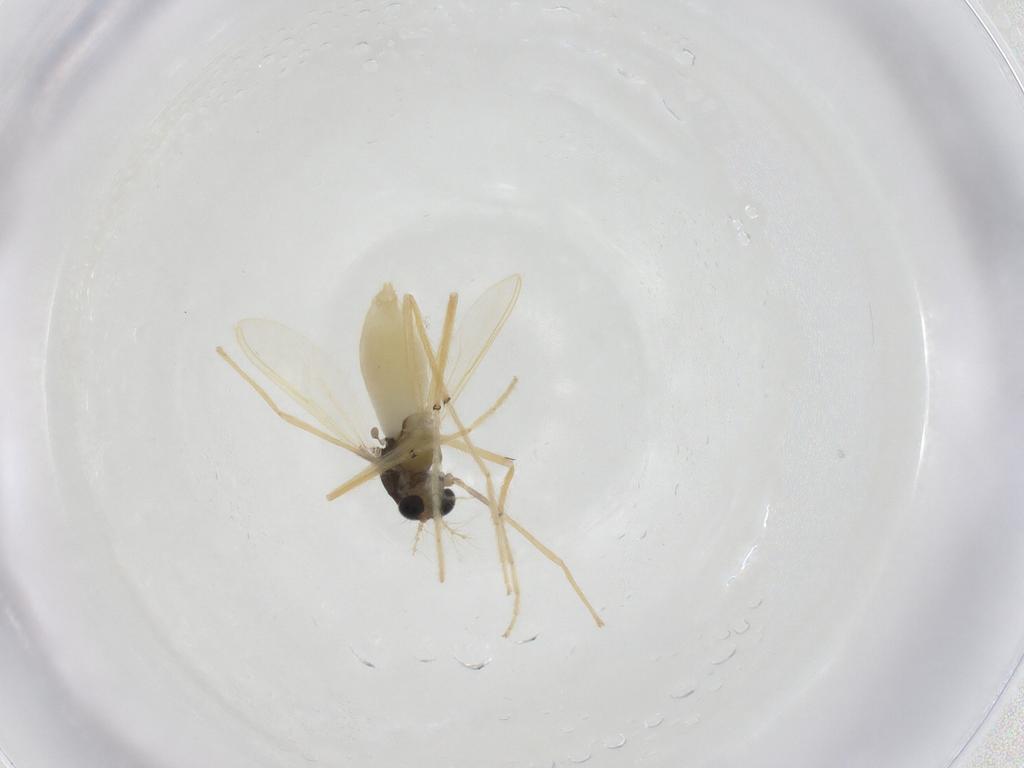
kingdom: Animalia
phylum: Arthropoda
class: Insecta
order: Diptera
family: Chironomidae
